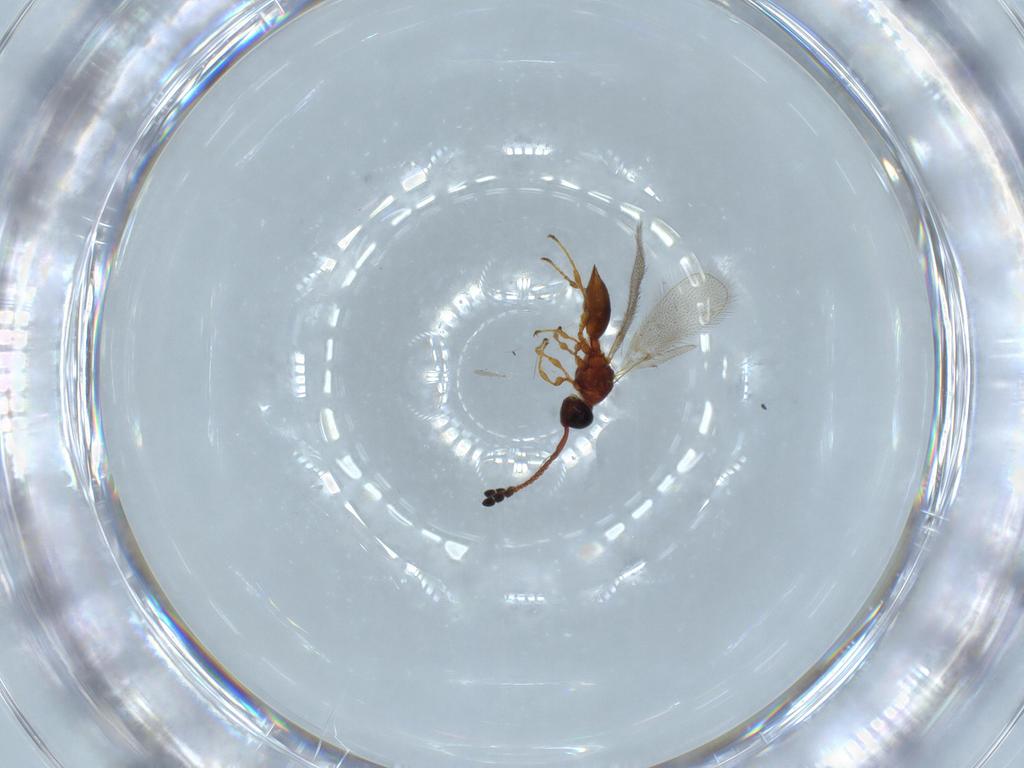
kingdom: Animalia
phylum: Arthropoda
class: Insecta
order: Hymenoptera
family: Diapriidae
